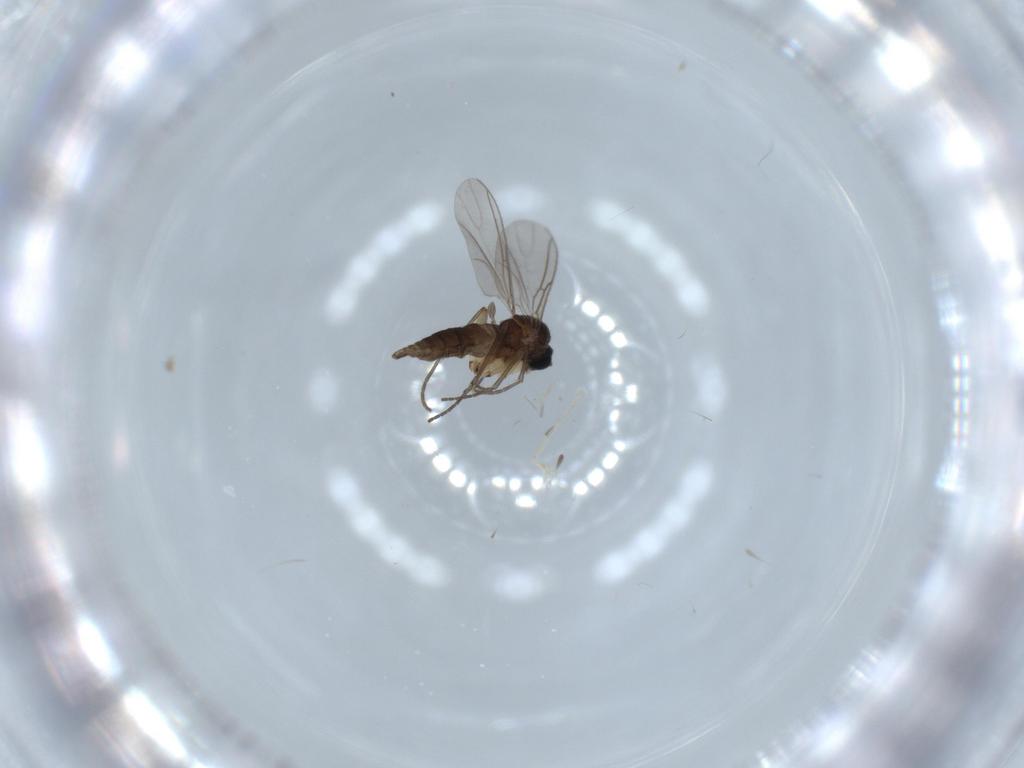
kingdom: Animalia
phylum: Arthropoda
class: Insecta
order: Diptera
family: Sciaridae
